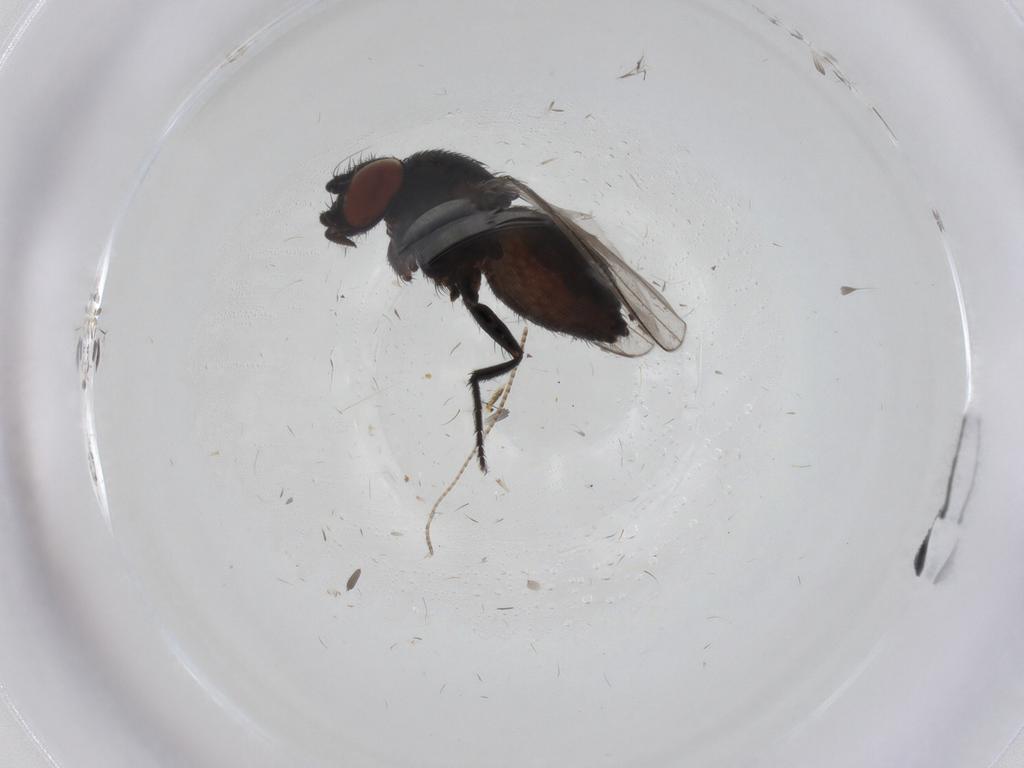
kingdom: Animalia
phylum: Arthropoda
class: Insecta
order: Diptera
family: Milichiidae
